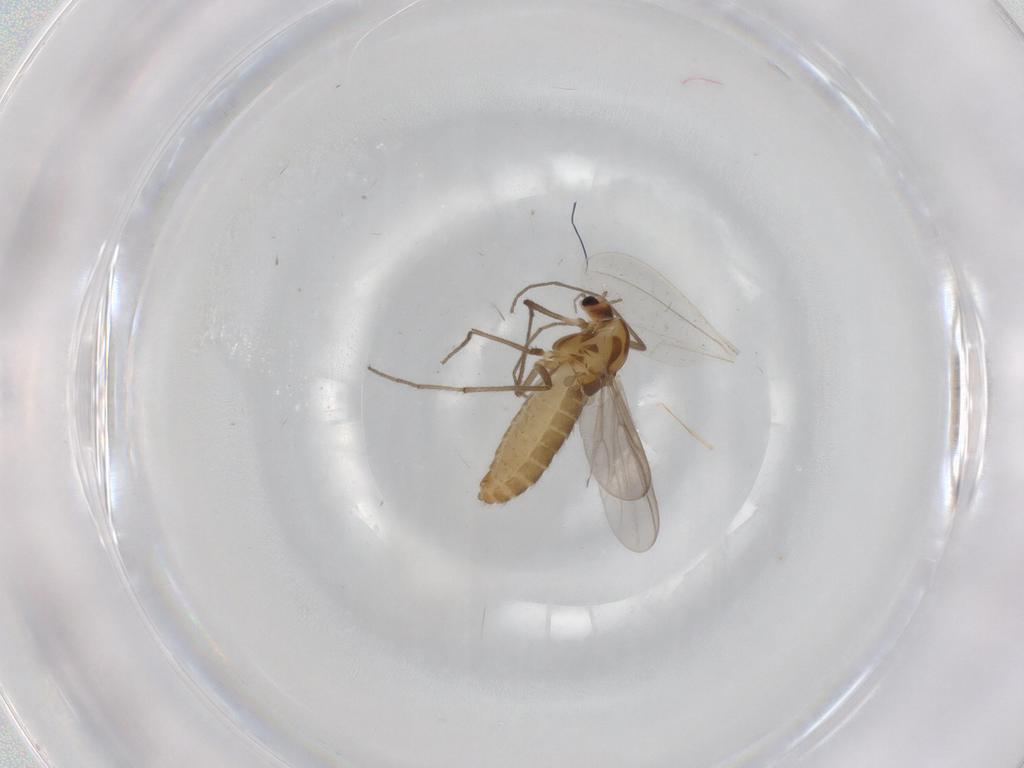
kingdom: Animalia
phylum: Arthropoda
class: Insecta
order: Diptera
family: Chironomidae
